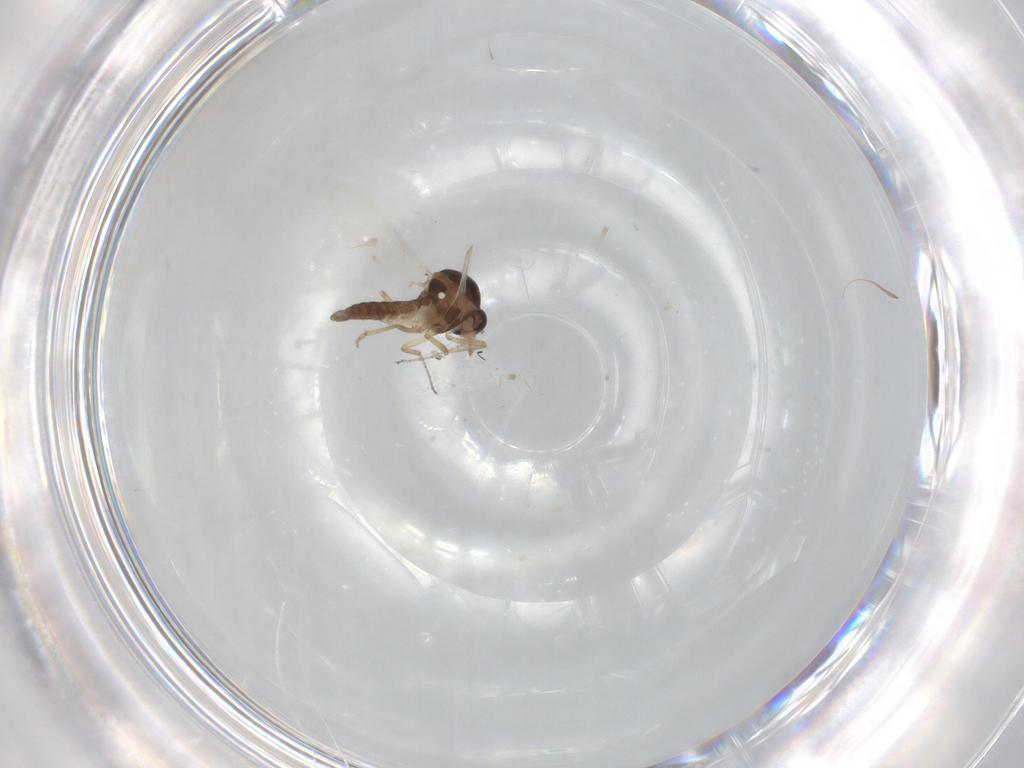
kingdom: Animalia
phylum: Arthropoda
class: Insecta
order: Diptera
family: Ceratopogonidae
